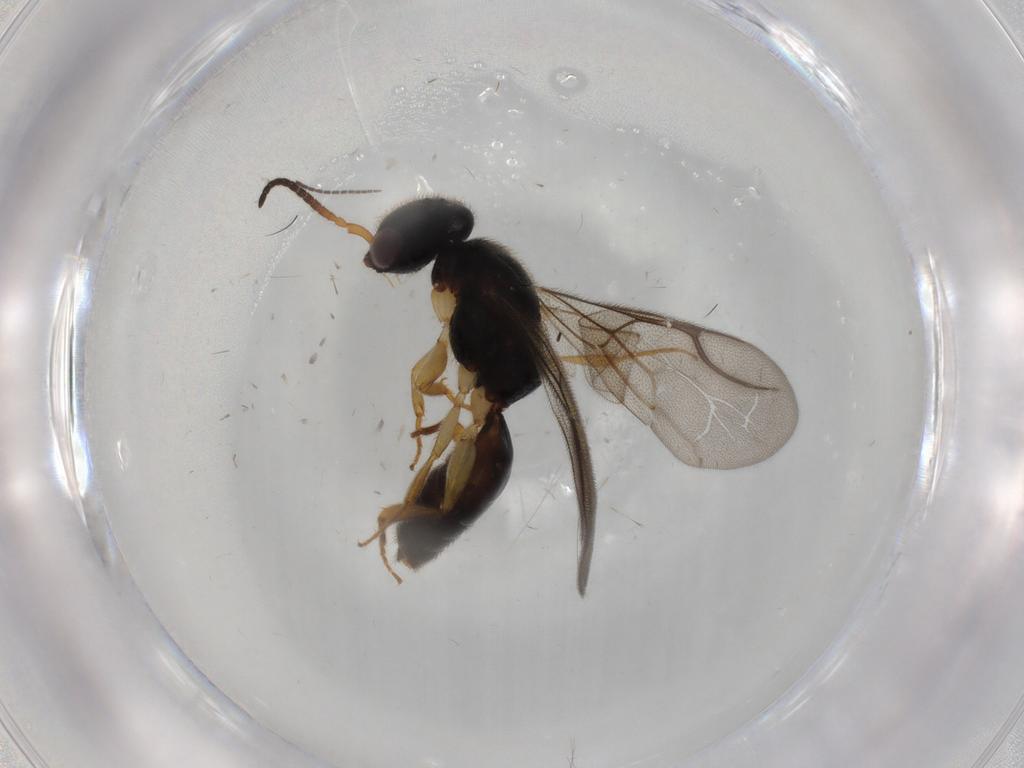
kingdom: Animalia
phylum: Arthropoda
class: Insecta
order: Hymenoptera
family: Bethylidae
